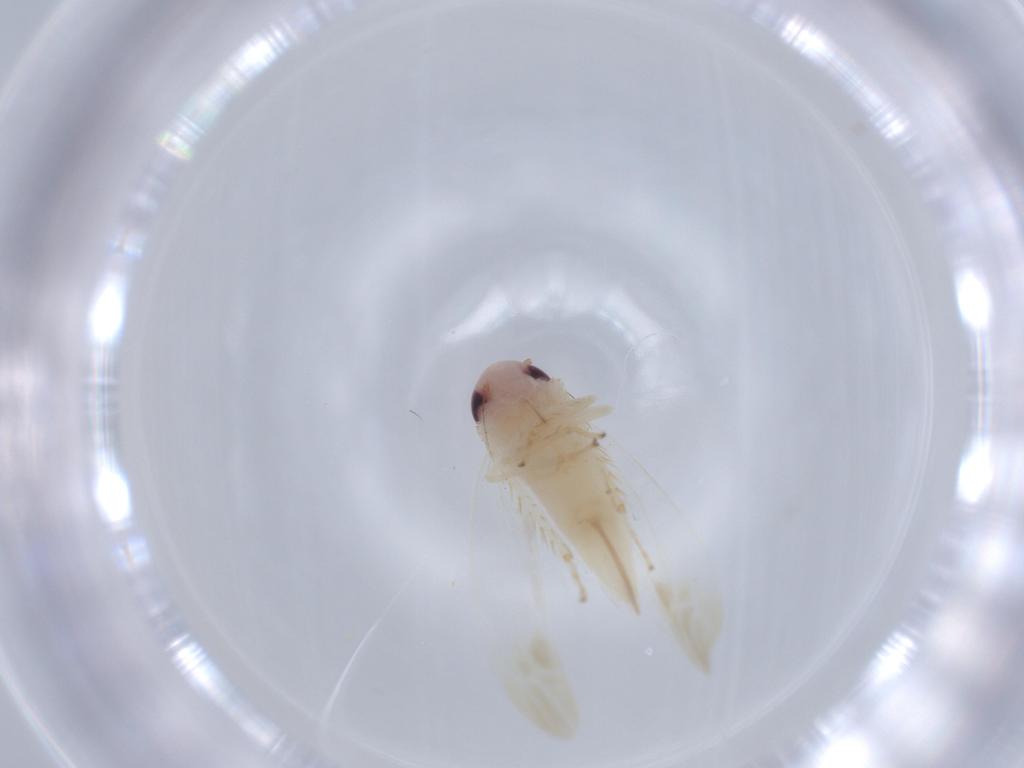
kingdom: Animalia
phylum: Arthropoda
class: Insecta
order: Hemiptera
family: Cicadellidae
